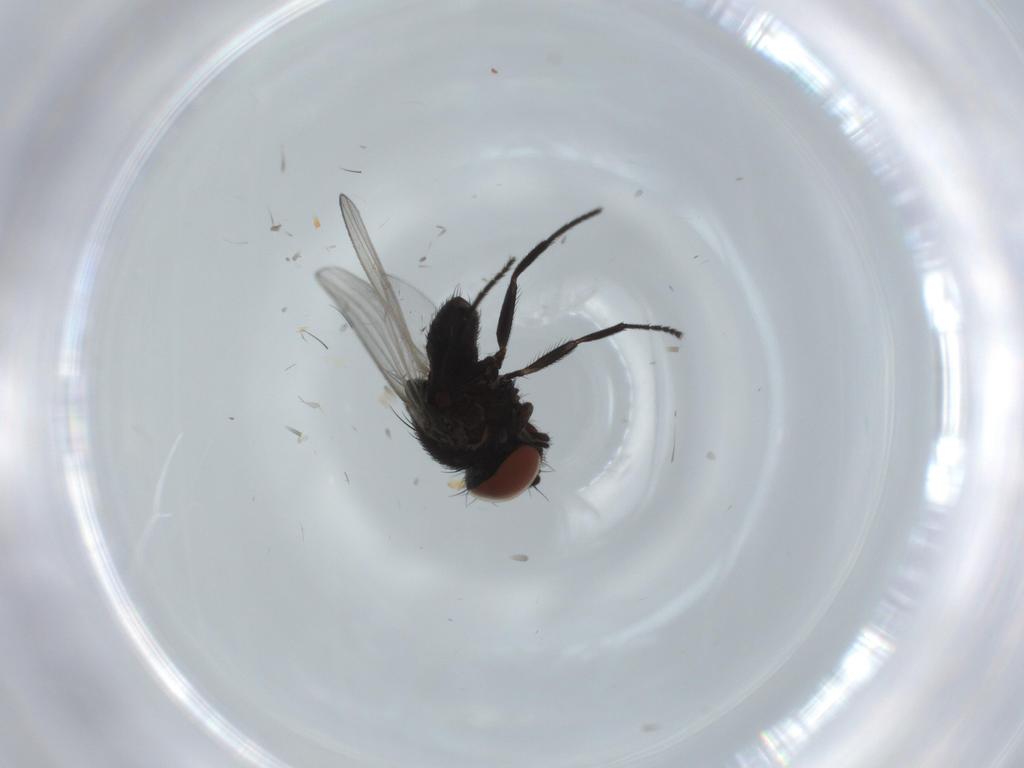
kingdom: Animalia
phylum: Arthropoda
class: Insecta
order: Diptera
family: Milichiidae
